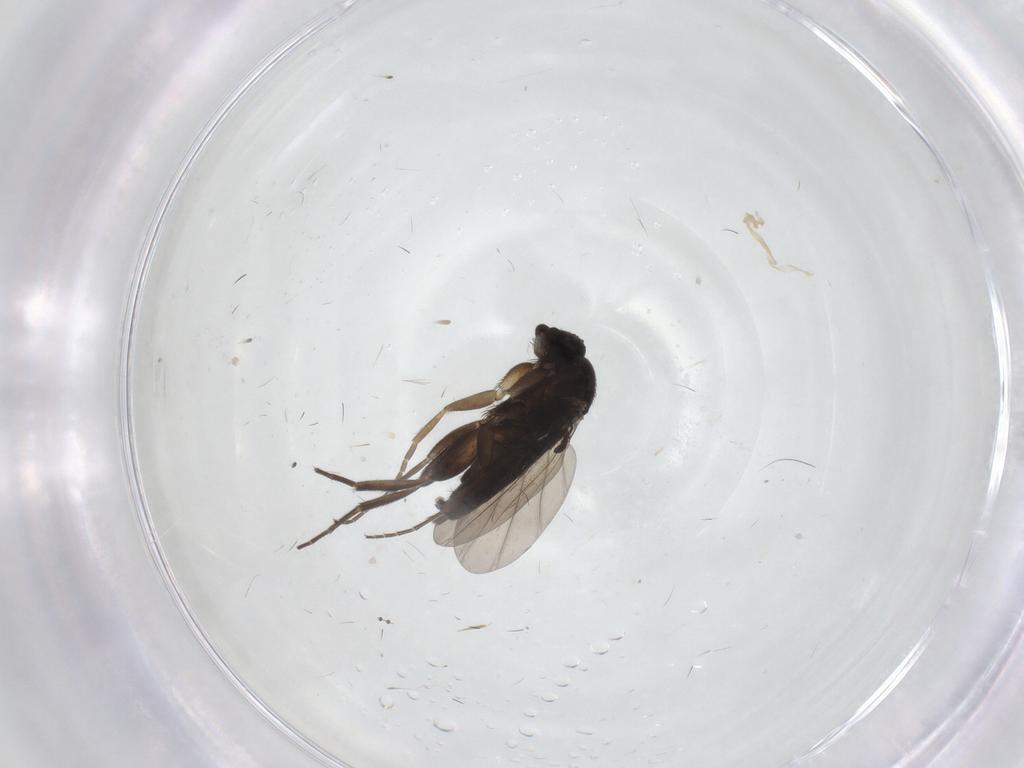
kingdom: Animalia
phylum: Arthropoda
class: Insecta
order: Diptera
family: Phoridae
